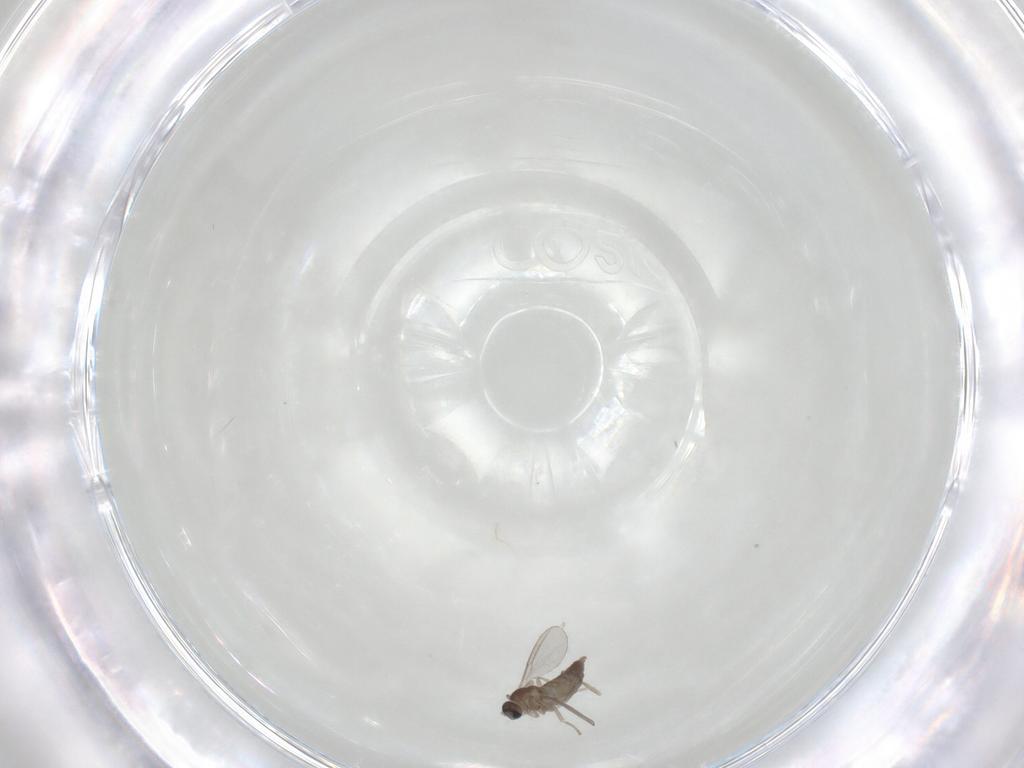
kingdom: Animalia
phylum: Arthropoda
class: Insecta
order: Diptera
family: Cecidomyiidae
